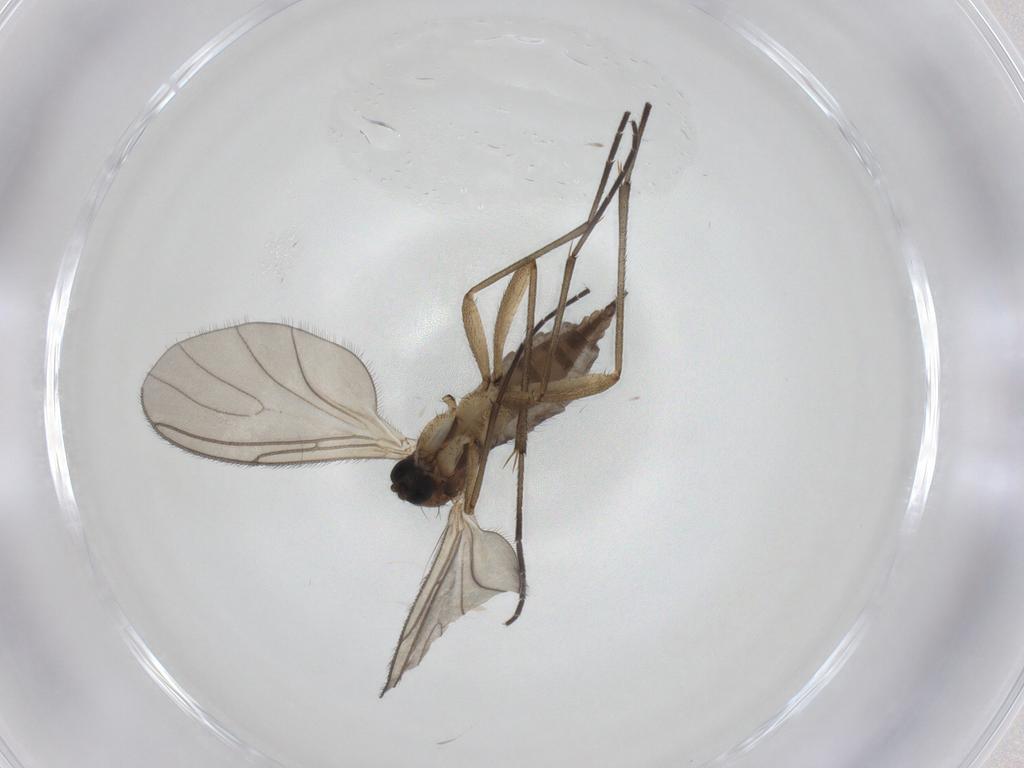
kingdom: Animalia
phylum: Arthropoda
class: Insecta
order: Diptera
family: Sciaridae
